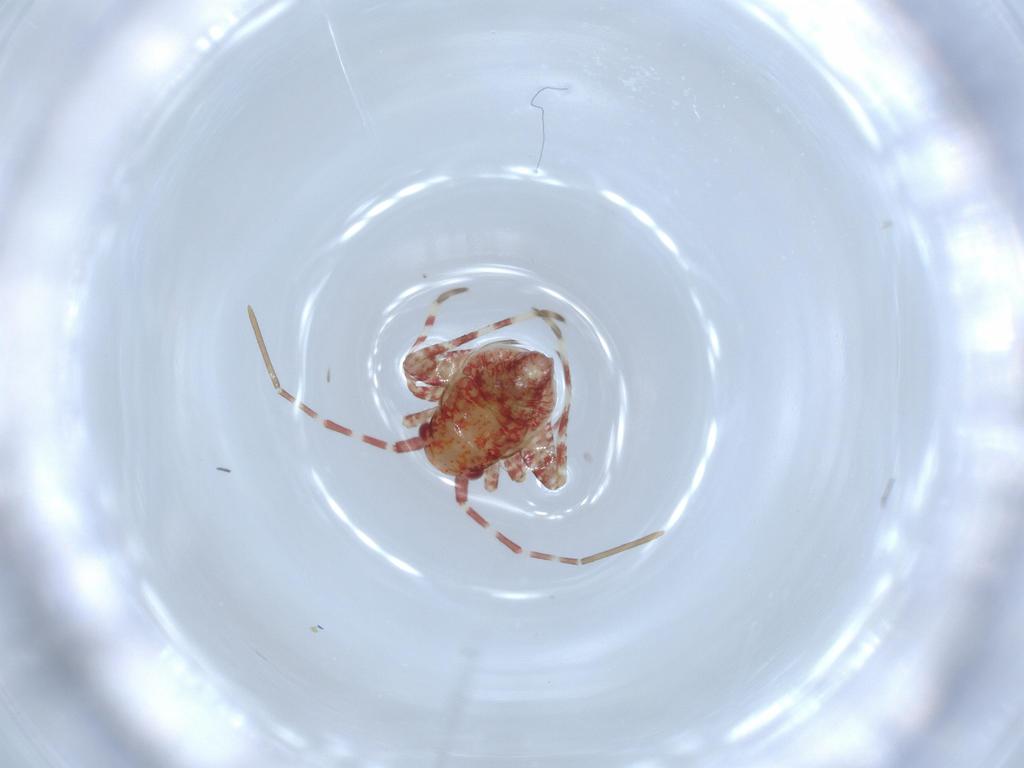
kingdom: Animalia
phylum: Arthropoda
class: Insecta
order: Hemiptera
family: Miridae
